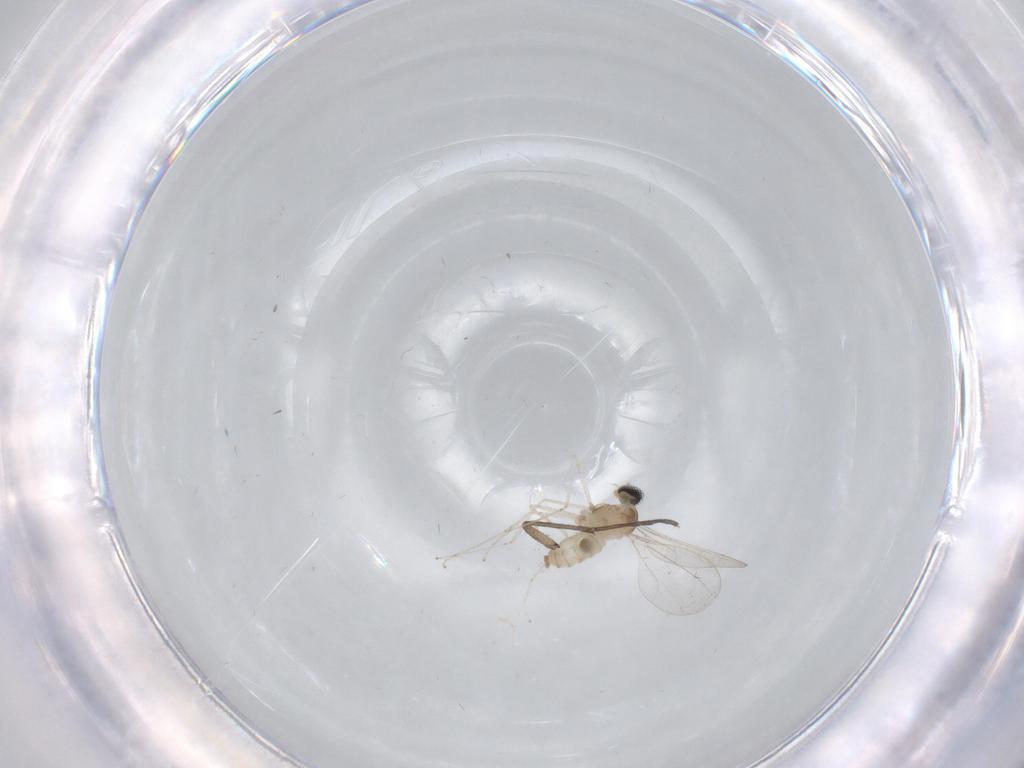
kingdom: Animalia
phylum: Arthropoda
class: Insecta
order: Diptera
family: Cecidomyiidae
